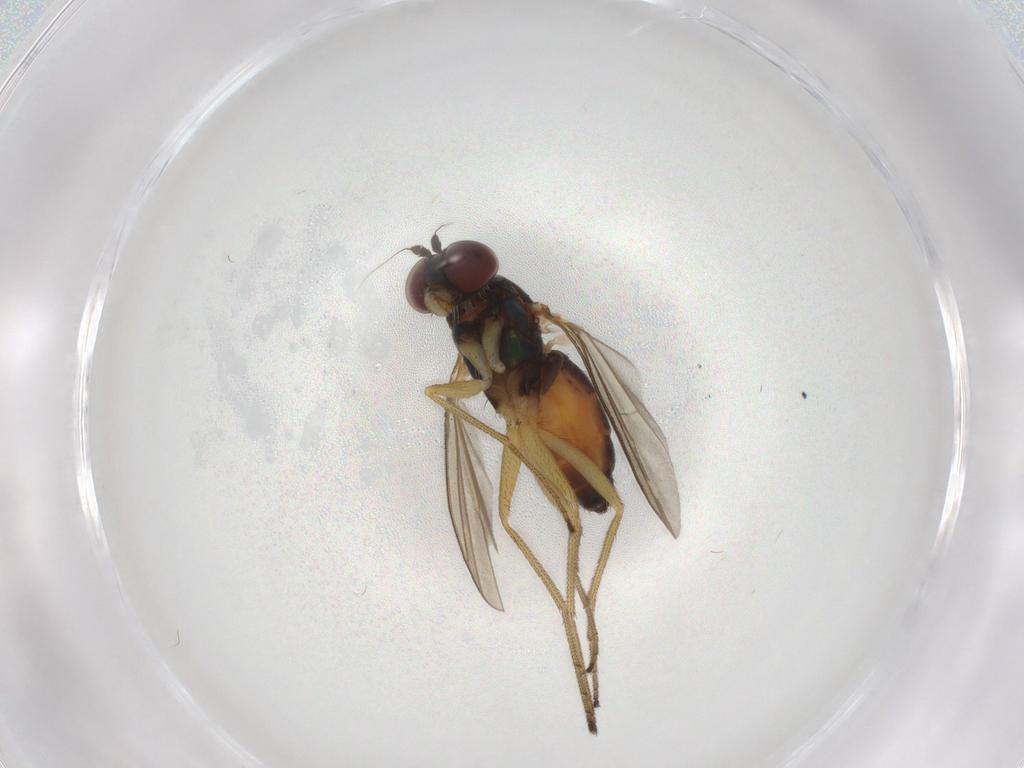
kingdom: Animalia
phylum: Arthropoda
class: Insecta
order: Diptera
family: Dolichopodidae
